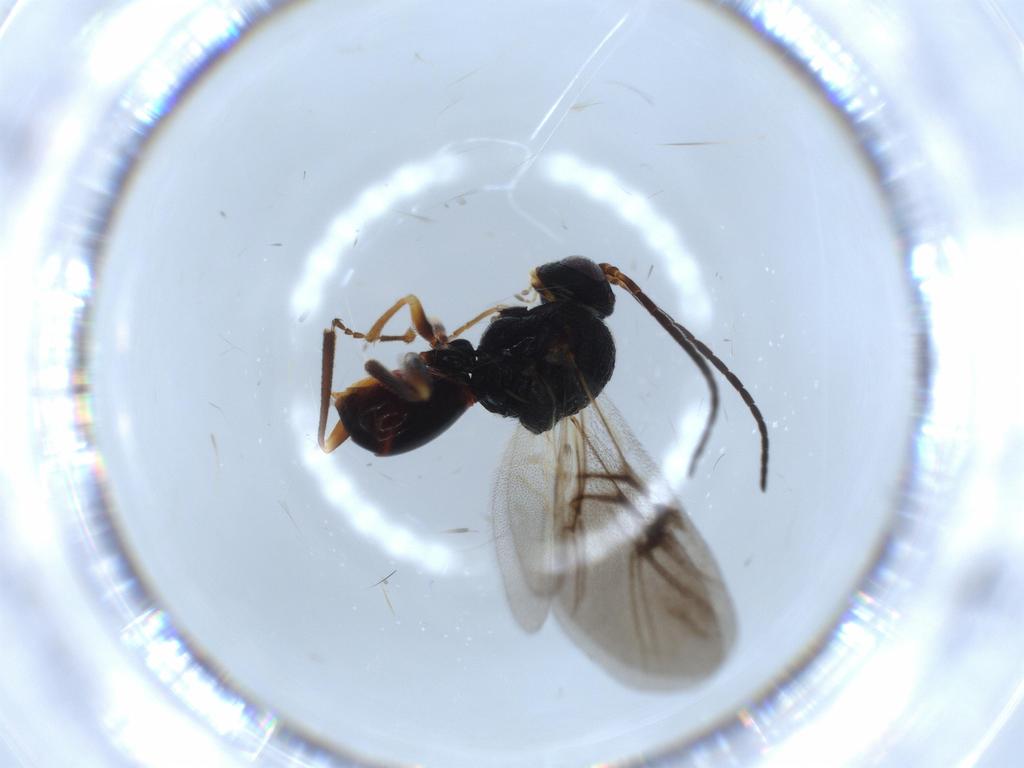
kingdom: Animalia
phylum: Arthropoda
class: Insecta
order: Hymenoptera
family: Cynipidae
